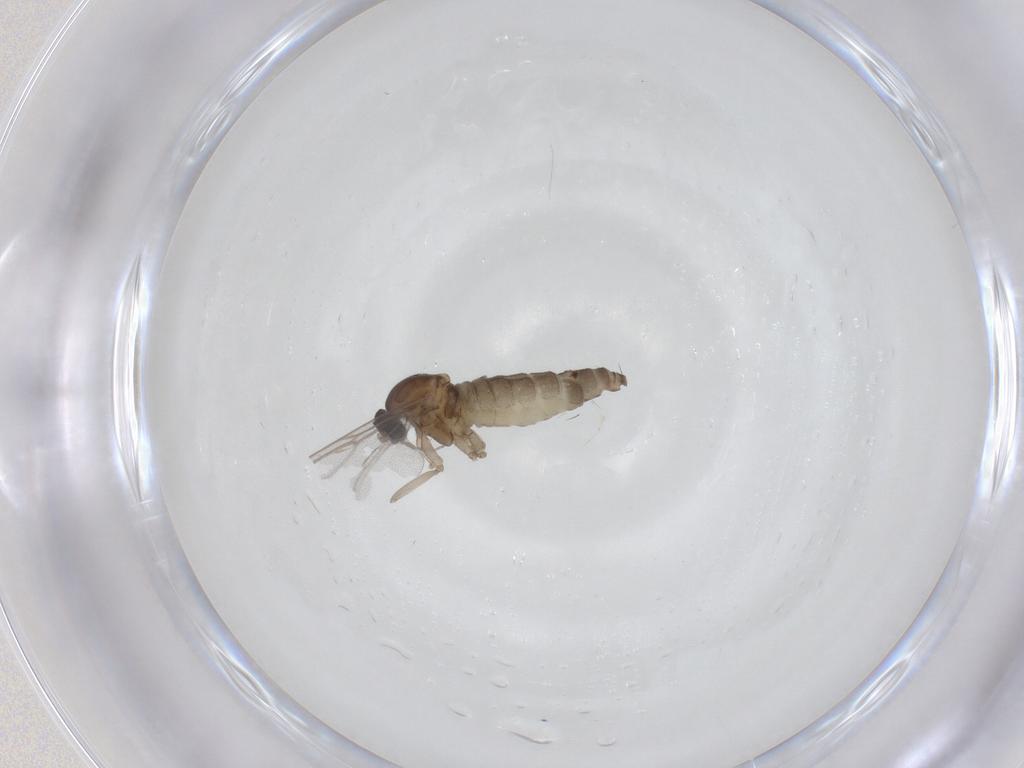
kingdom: Animalia
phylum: Arthropoda
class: Insecta
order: Diptera
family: Cecidomyiidae
